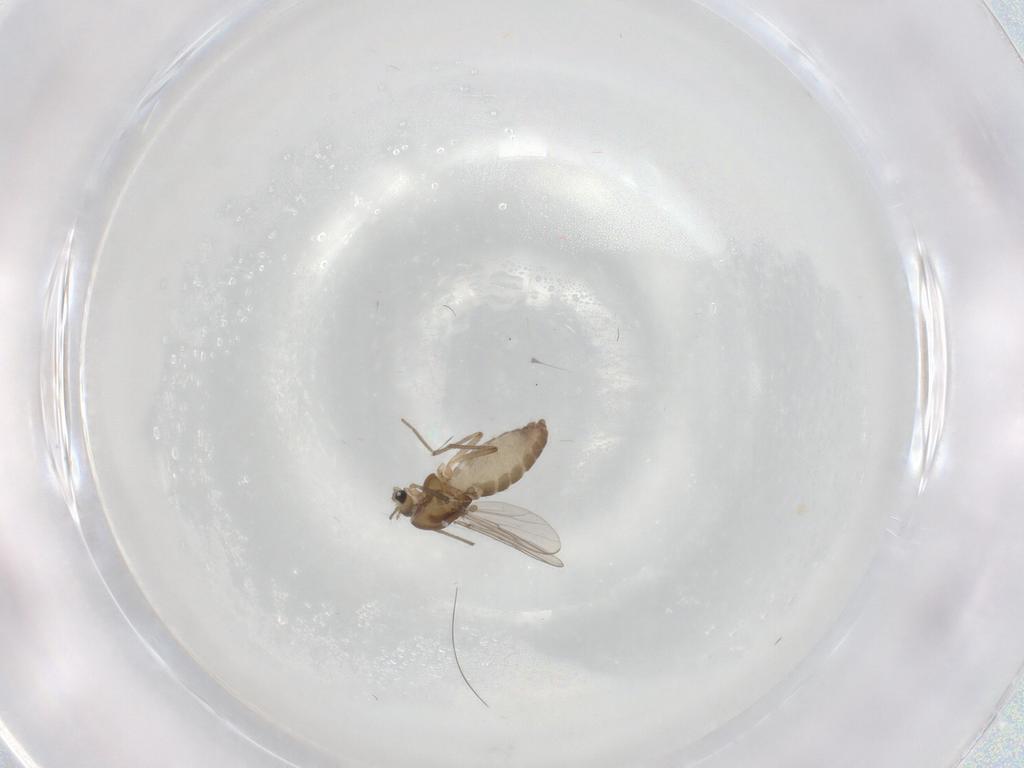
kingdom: Animalia
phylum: Arthropoda
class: Insecta
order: Diptera
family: Chironomidae
